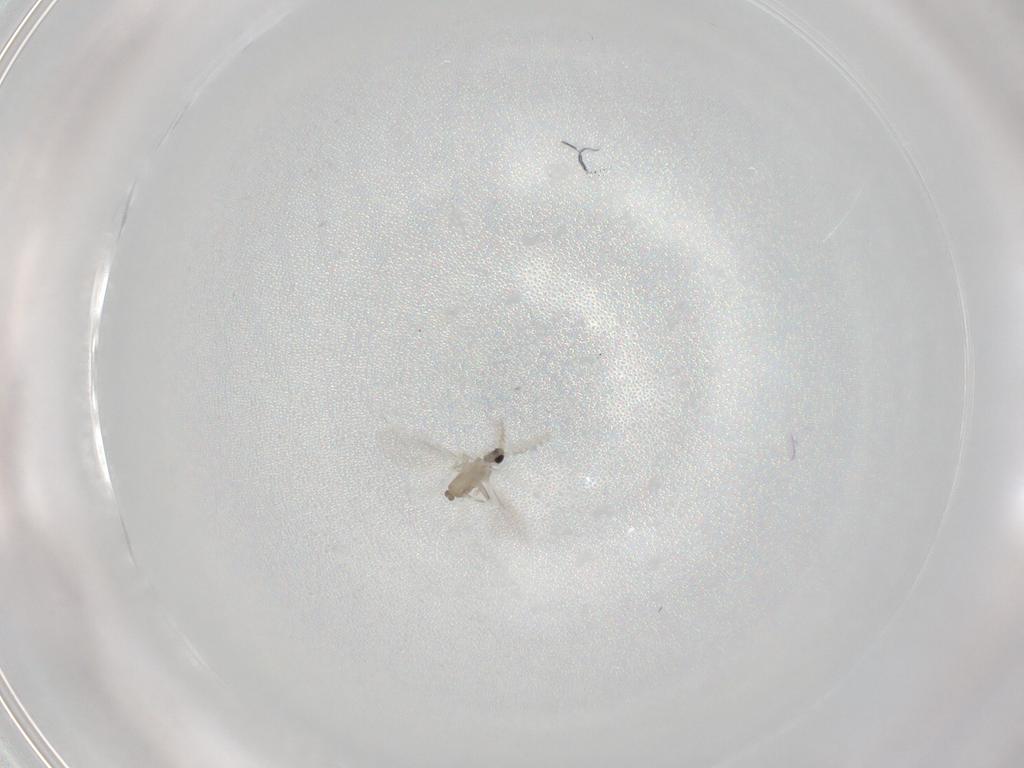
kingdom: Animalia
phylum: Arthropoda
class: Insecta
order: Diptera
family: Cecidomyiidae
